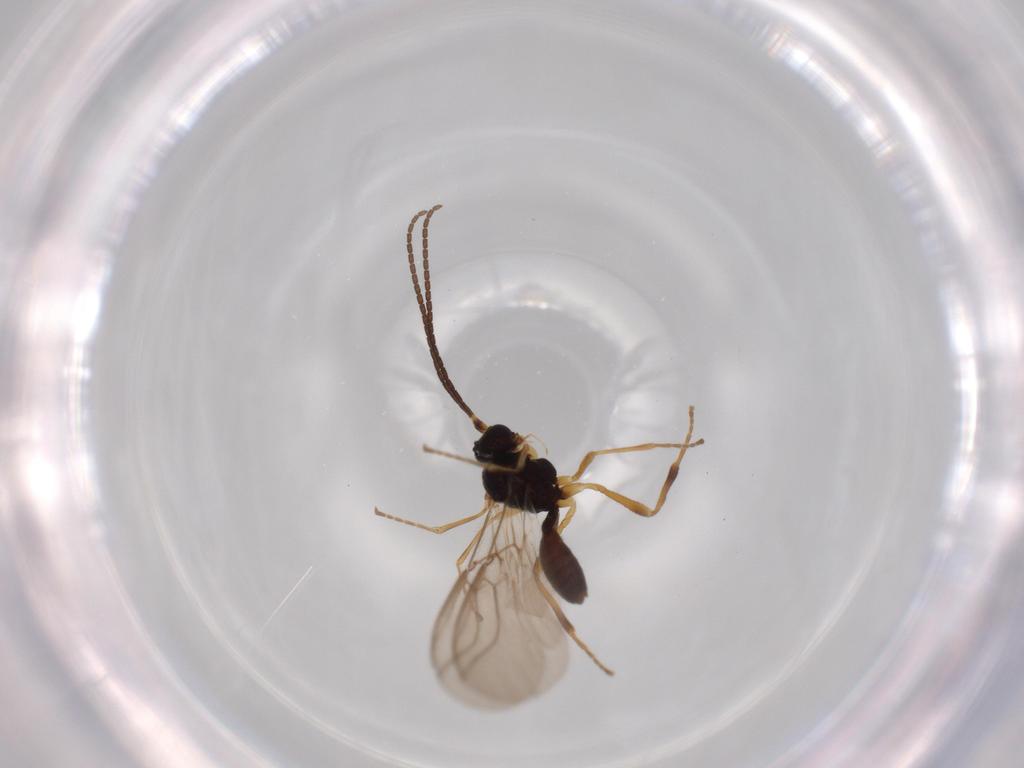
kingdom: Animalia
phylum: Arthropoda
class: Insecta
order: Hymenoptera
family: Braconidae
